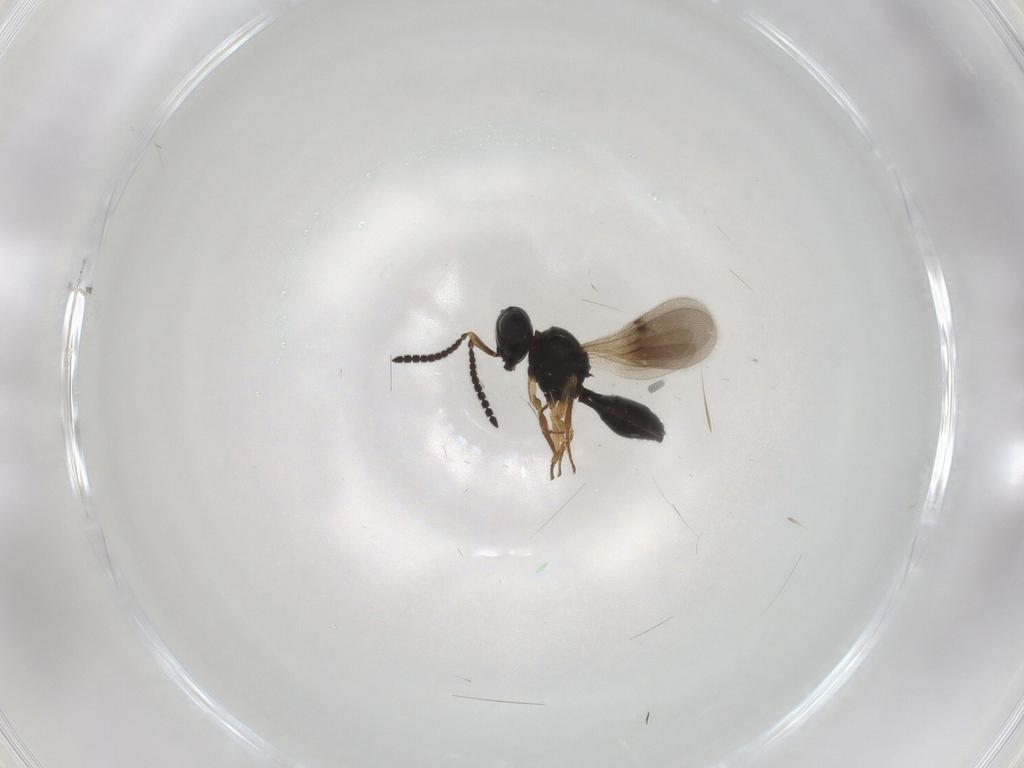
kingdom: Animalia
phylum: Arthropoda
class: Insecta
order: Hymenoptera
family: Scelionidae
